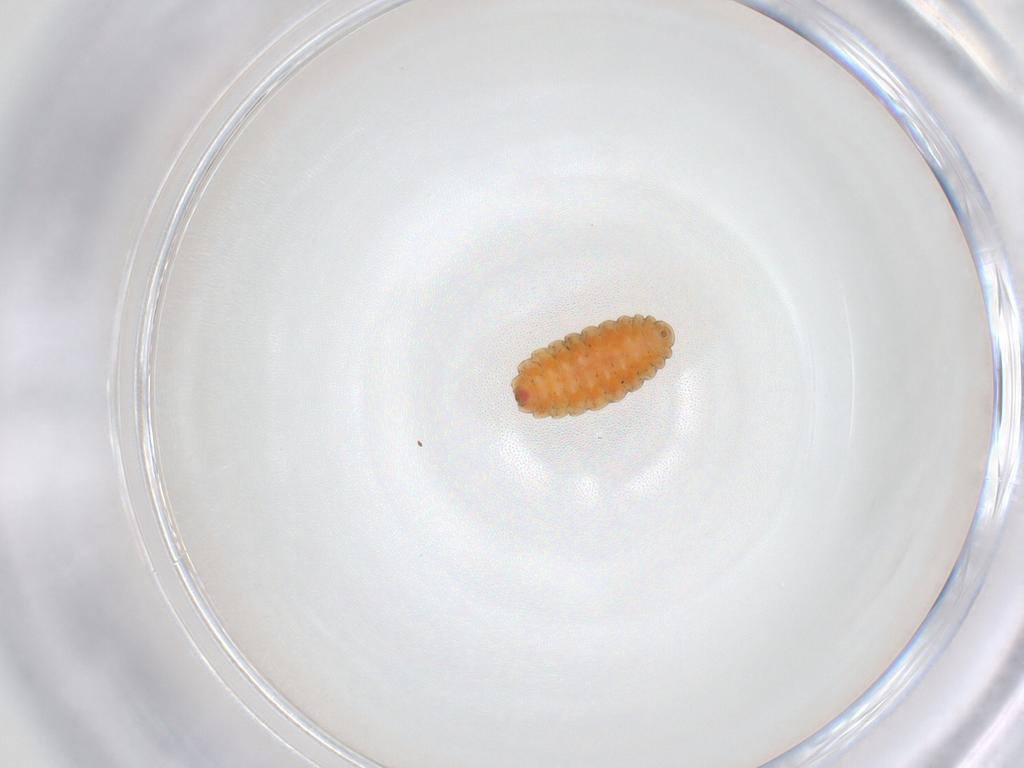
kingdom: Animalia
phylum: Arthropoda
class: Collembola
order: Poduromorpha
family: Hypogastruridae
